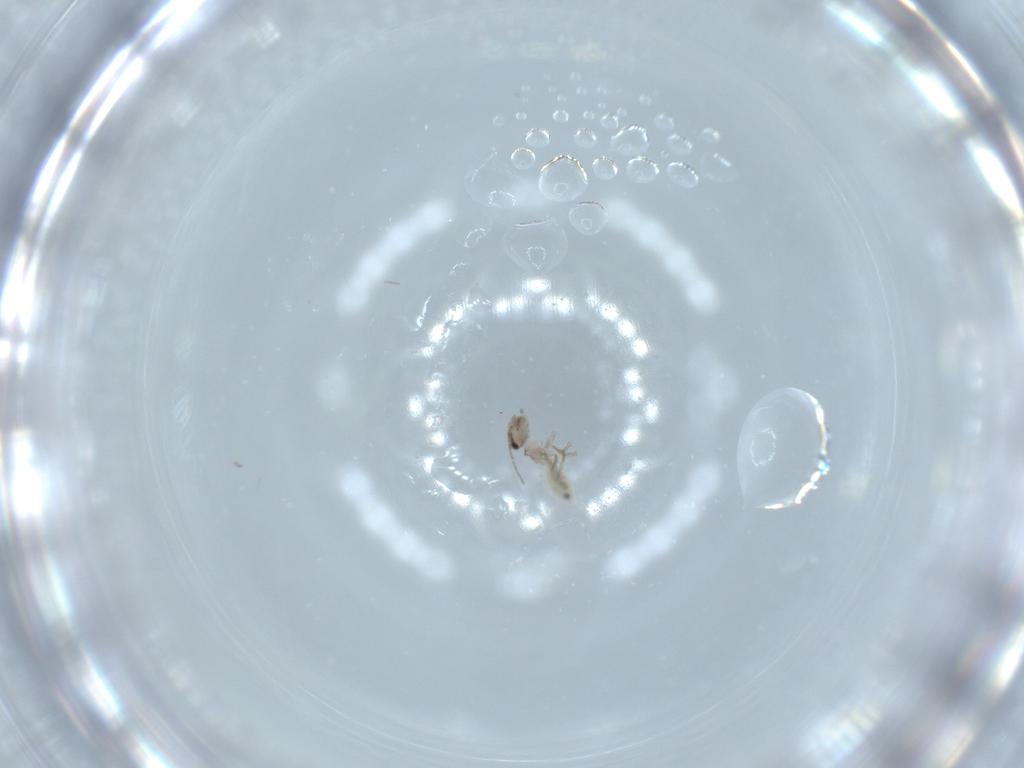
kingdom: Animalia
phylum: Arthropoda
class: Insecta
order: Psocodea
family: Lepidopsocidae
